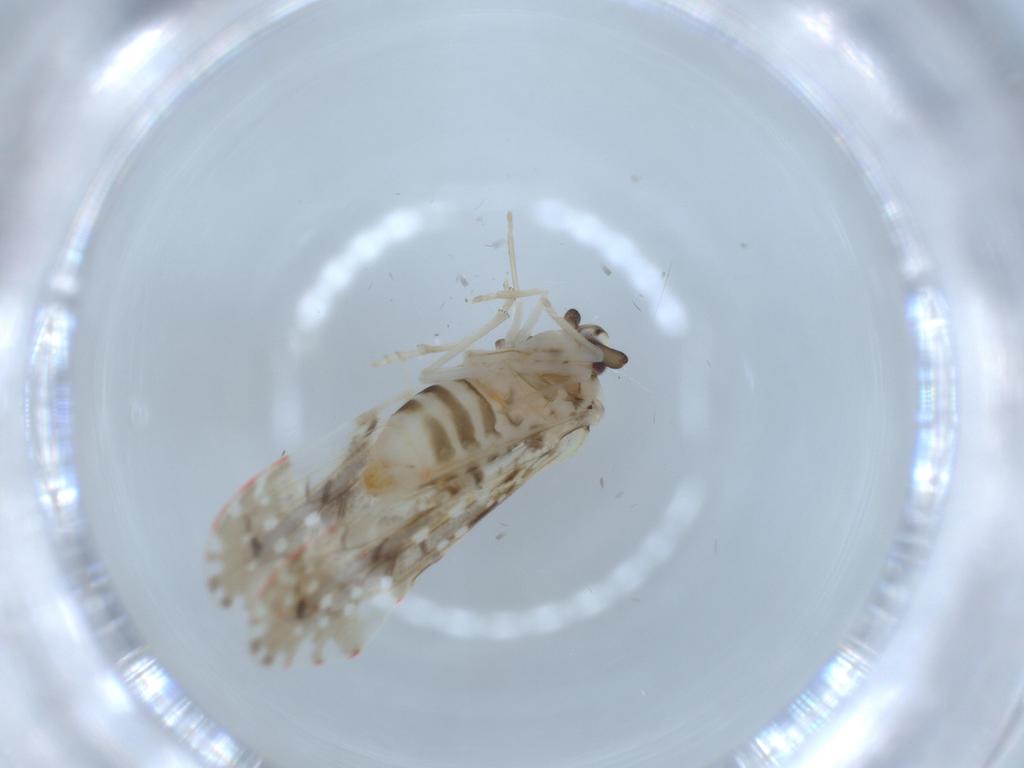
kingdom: Animalia
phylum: Arthropoda
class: Insecta
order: Hemiptera
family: Derbidae
